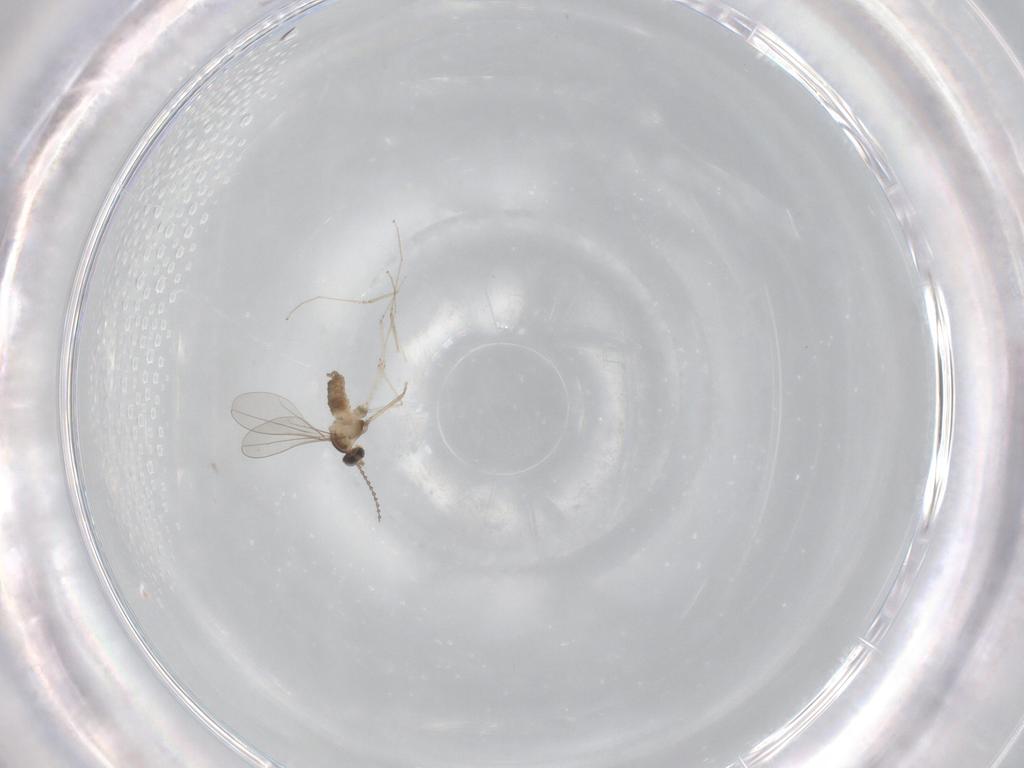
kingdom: Animalia
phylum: Arthropoda
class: Insecta
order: Diptera
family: Cecidomyiidae
